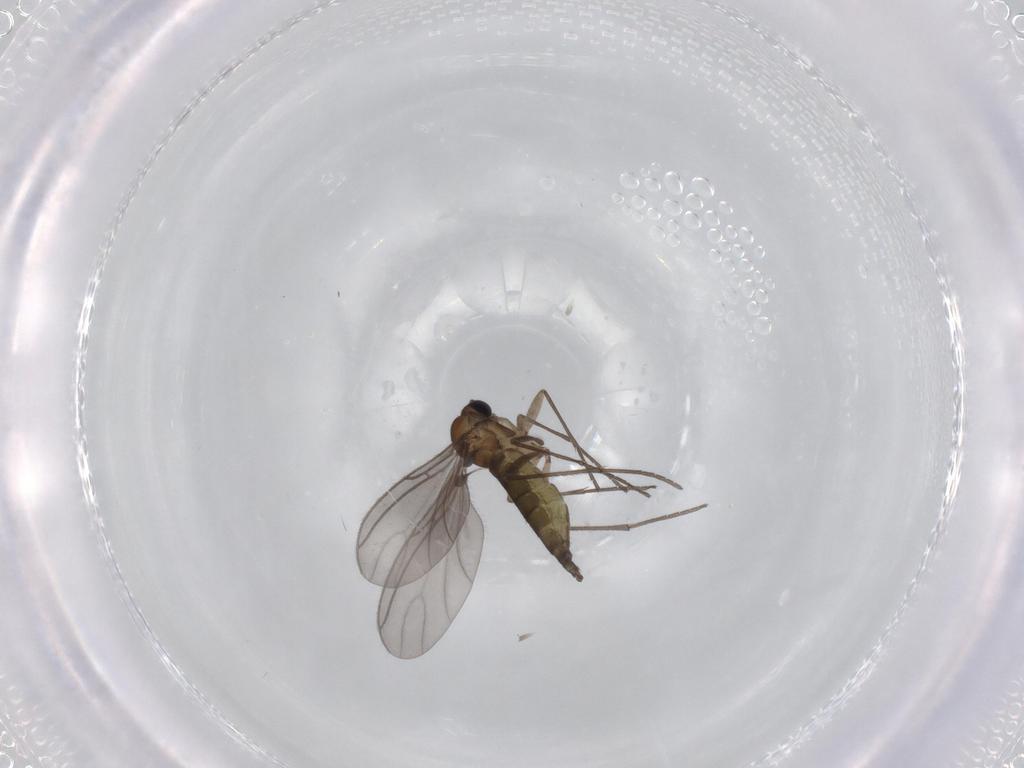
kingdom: Animalia
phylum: Arthropoda
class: Insecta
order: Diptera
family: Sciaridae
